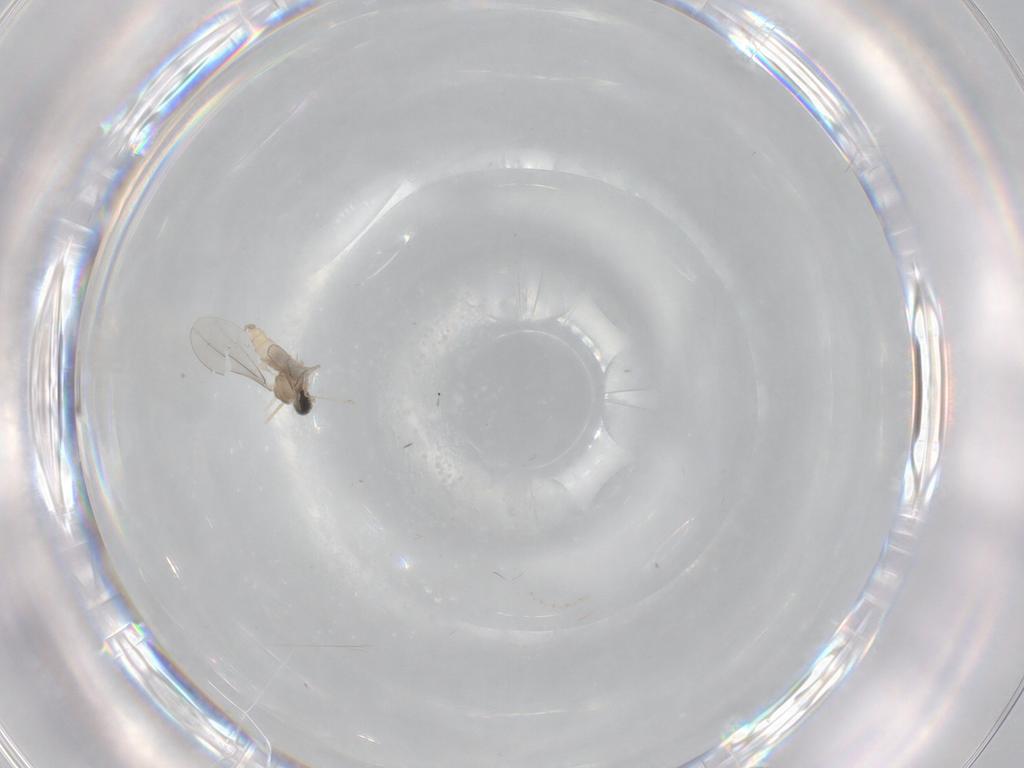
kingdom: Animalia
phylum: Arthropoda
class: Insecta
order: Diptera
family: Cecidomyiidae
